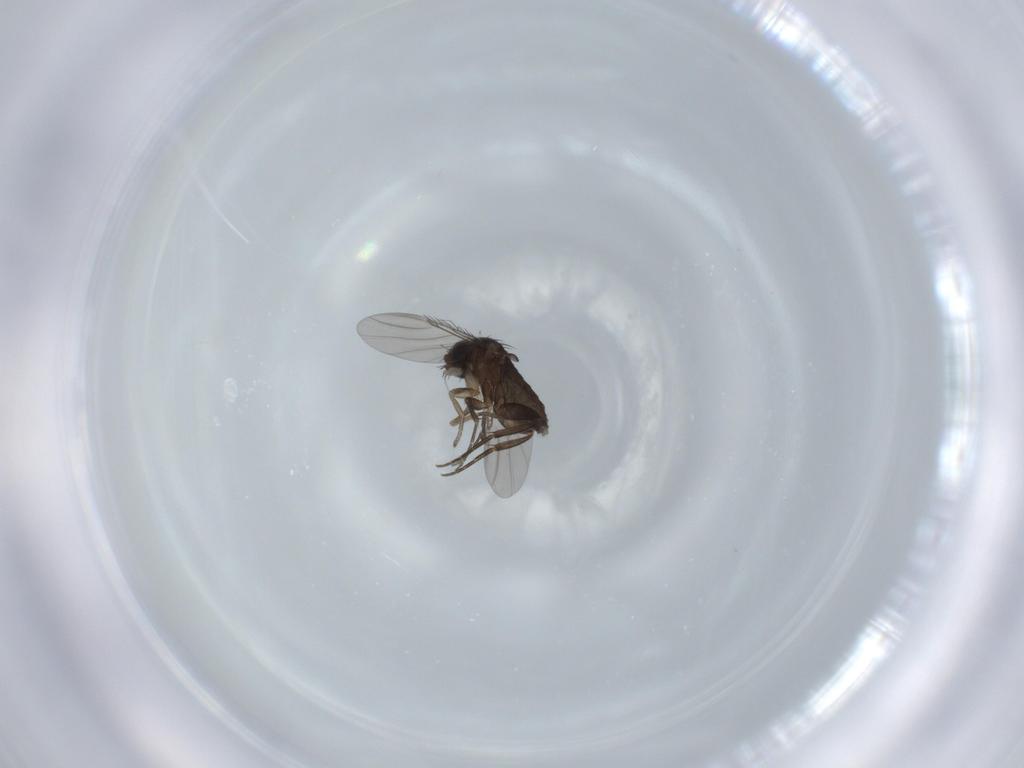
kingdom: Animalia
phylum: Arthropoda
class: Insecta
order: Diptera
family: Phoridae
